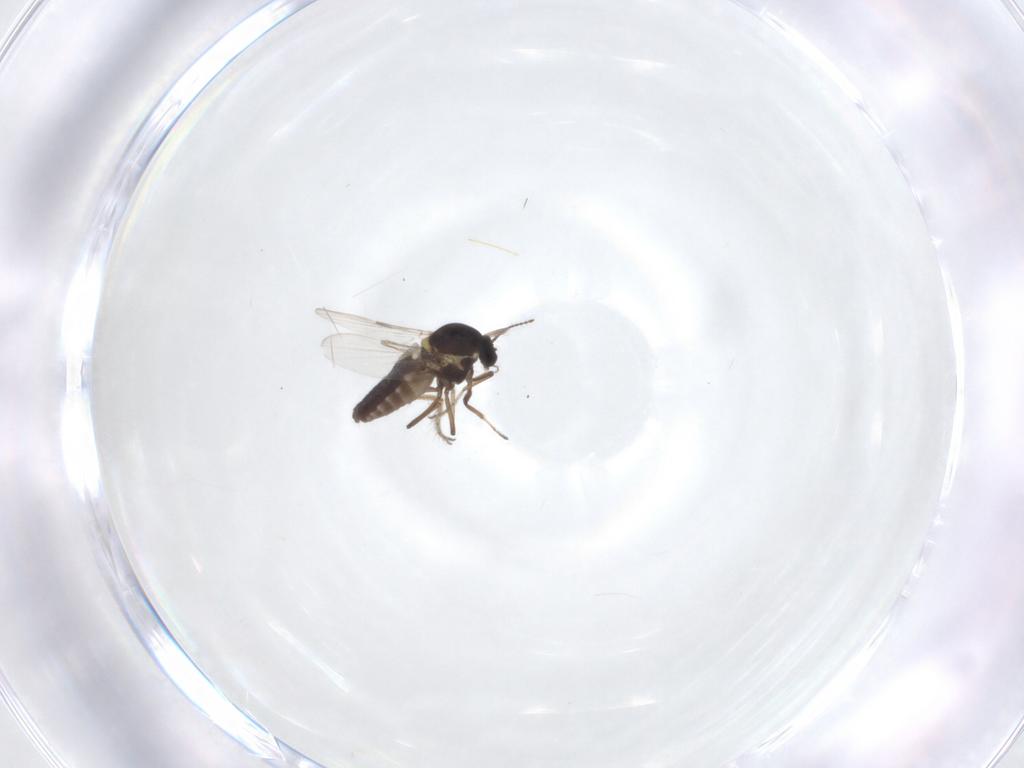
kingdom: Animalia
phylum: Arthropoda
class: Insecta
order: Diptera
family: Ceratopogonidae
